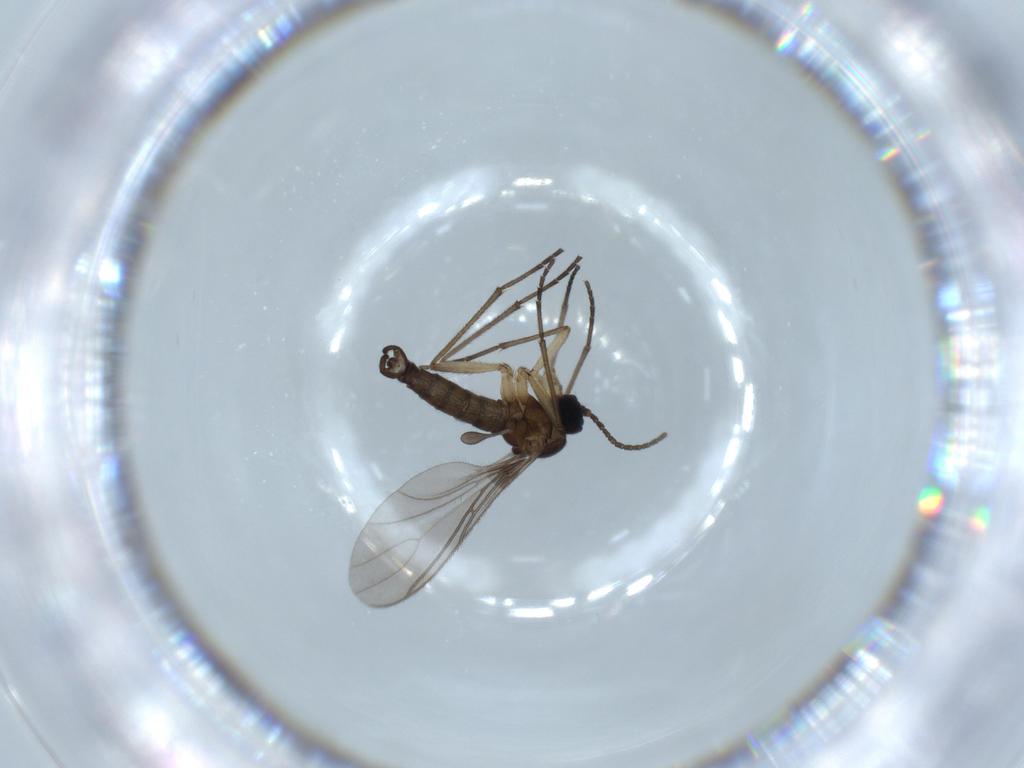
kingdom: Animalia
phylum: Arthropoda
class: Insecta
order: Diptera
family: Sciaridae
